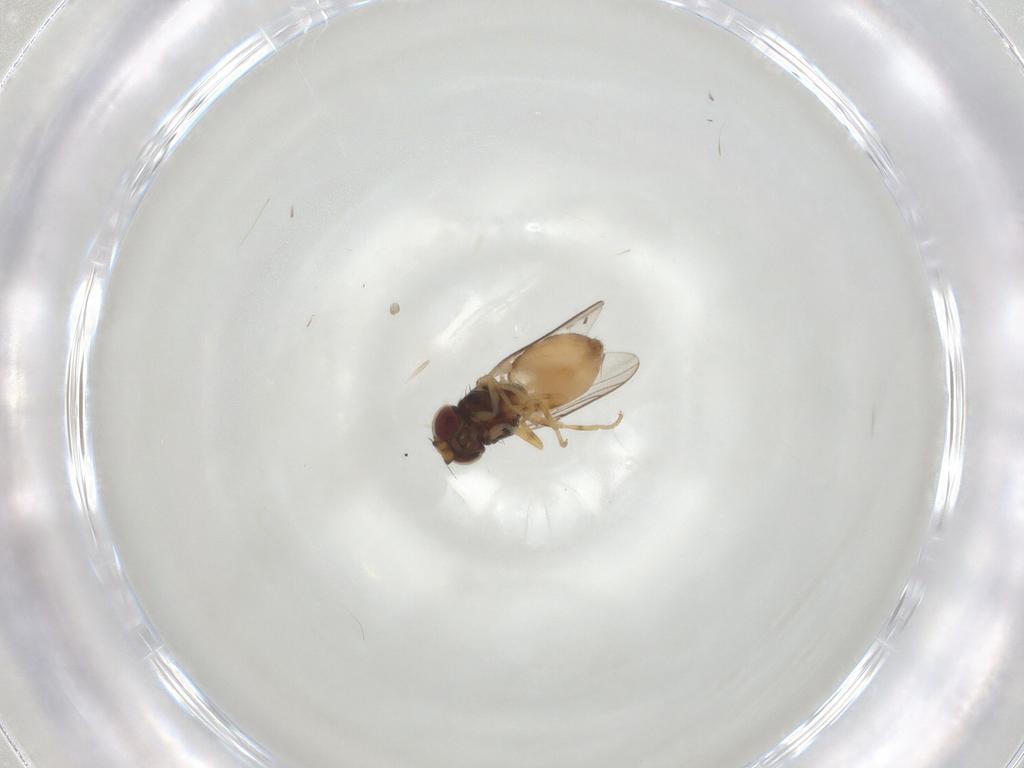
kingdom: Animalia
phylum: Arthropoda
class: Insecta
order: Diptera
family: Chloropidae
